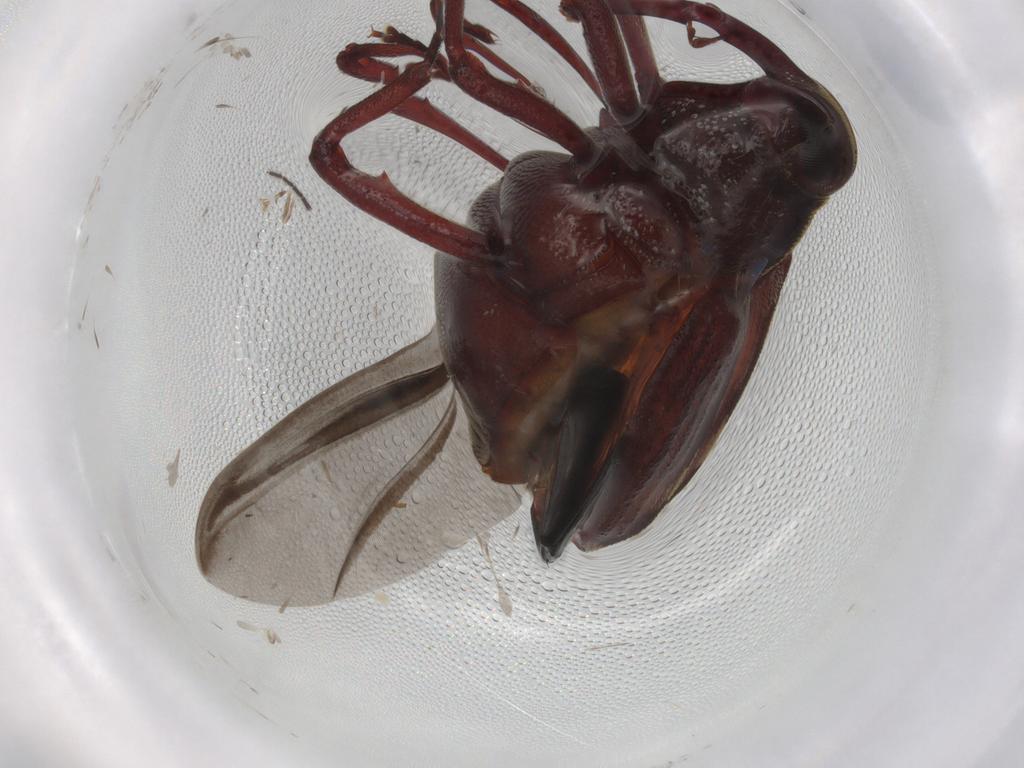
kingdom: Animalia
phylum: Arthropoda
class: Insecta
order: Coleoptera
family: Curculionidae
